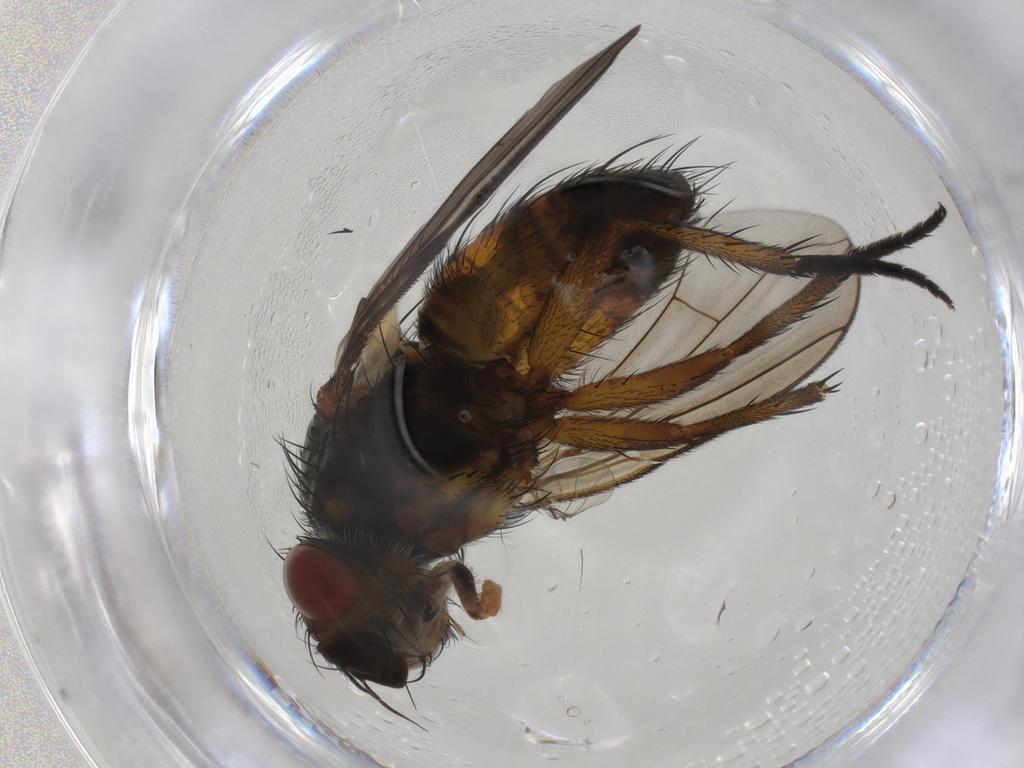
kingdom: Animalia
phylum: Arthropoda
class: Insecta
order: Diptera
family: Tachinidae
